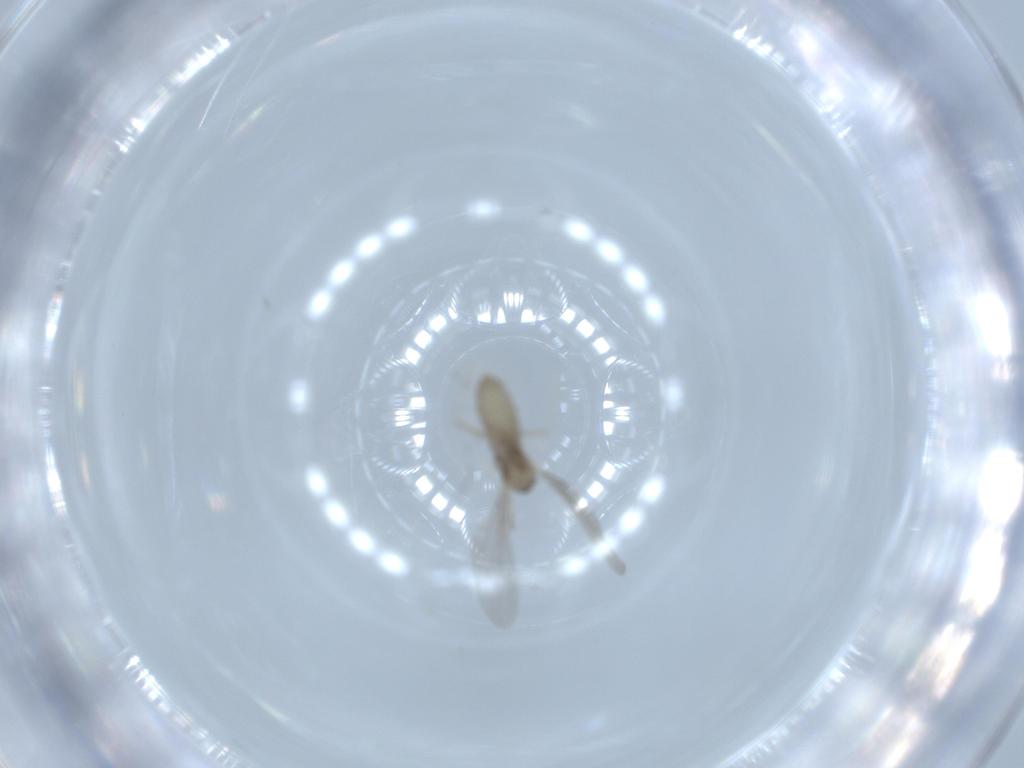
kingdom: Animalia
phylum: Arthropoda
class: Insecta
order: Diptera
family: Cecidomyiidae
